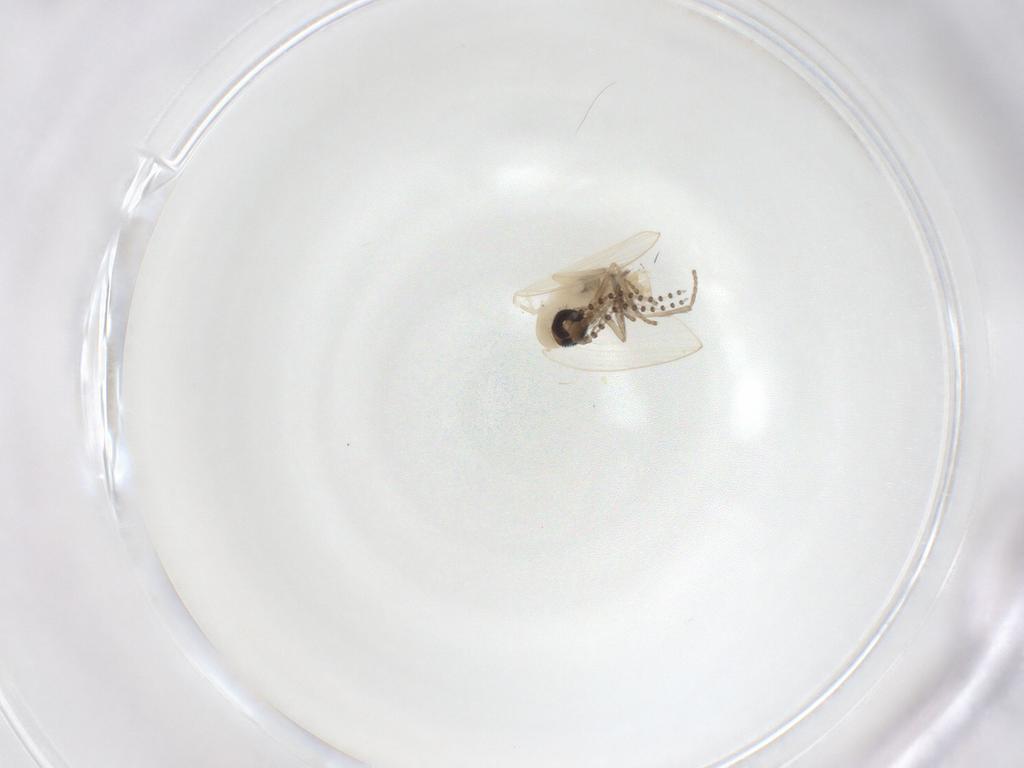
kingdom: Animalia
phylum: Arthropoda
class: Insecta
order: Diptera
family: Psychodidae
